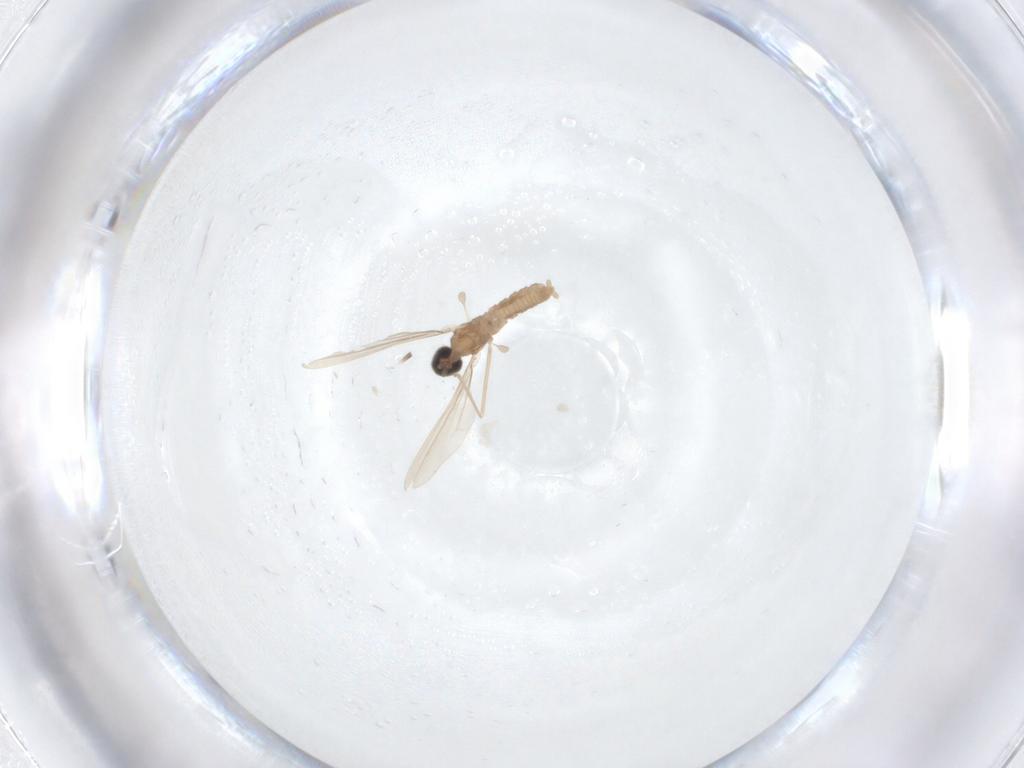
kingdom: Animalia
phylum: Arthropoda
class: Insecta
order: Diptera
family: Cecidomyiidae
